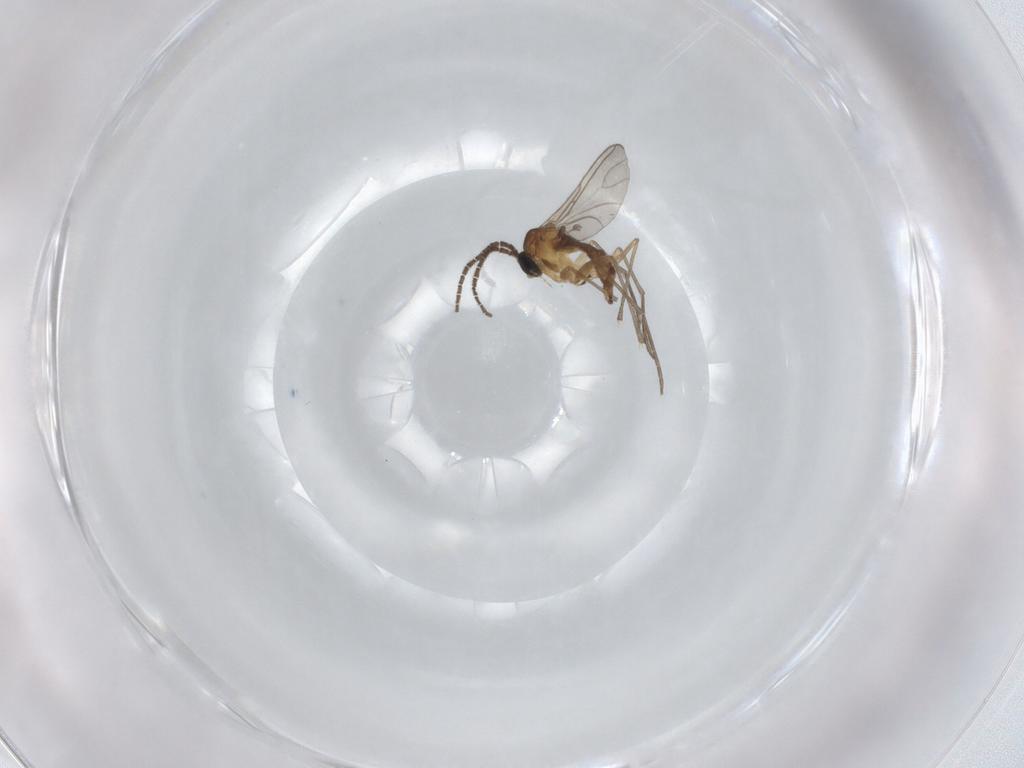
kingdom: Animalia
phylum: Arthropoda
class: Insecta
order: Diptera
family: Sciaridae
